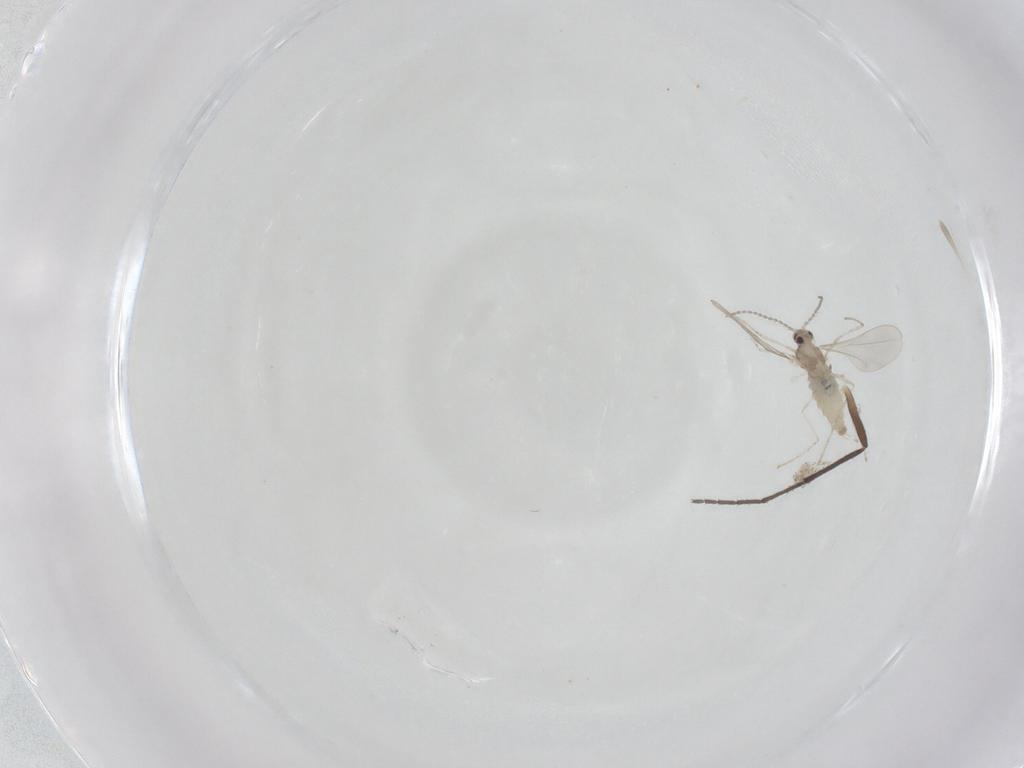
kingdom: Animalia
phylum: Arthropoda
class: Insecta
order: Diptera
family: Cecidomyiidae
